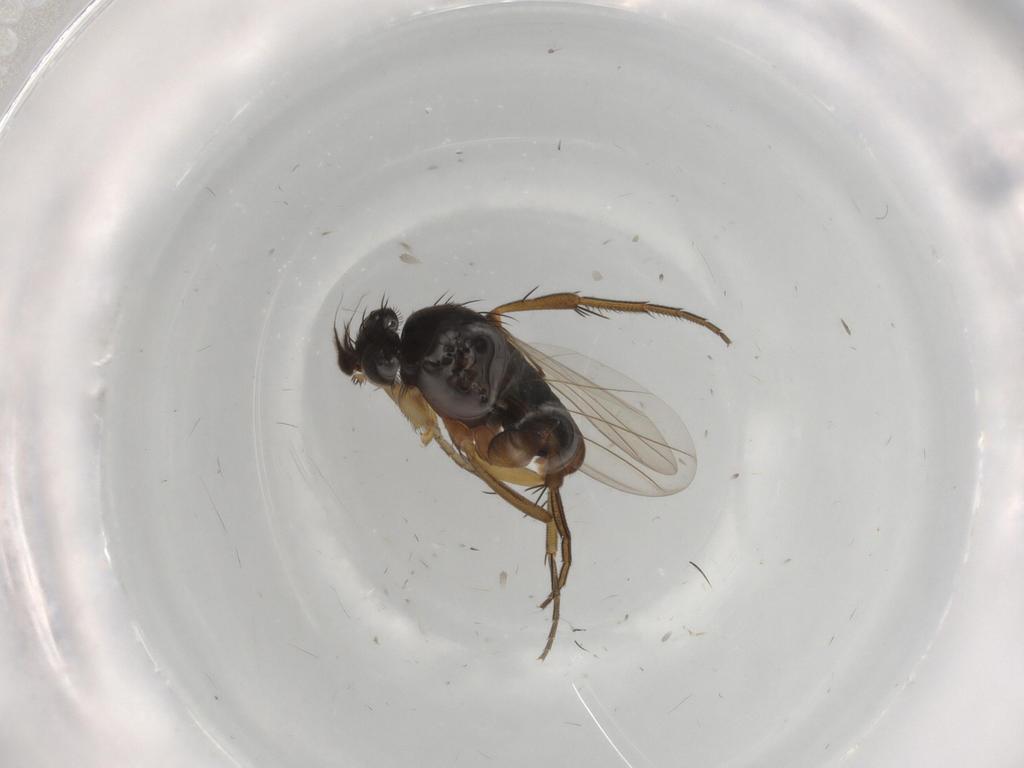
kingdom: Animalia
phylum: Arthropoda
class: Insecta
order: Diptera
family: Phoridae
